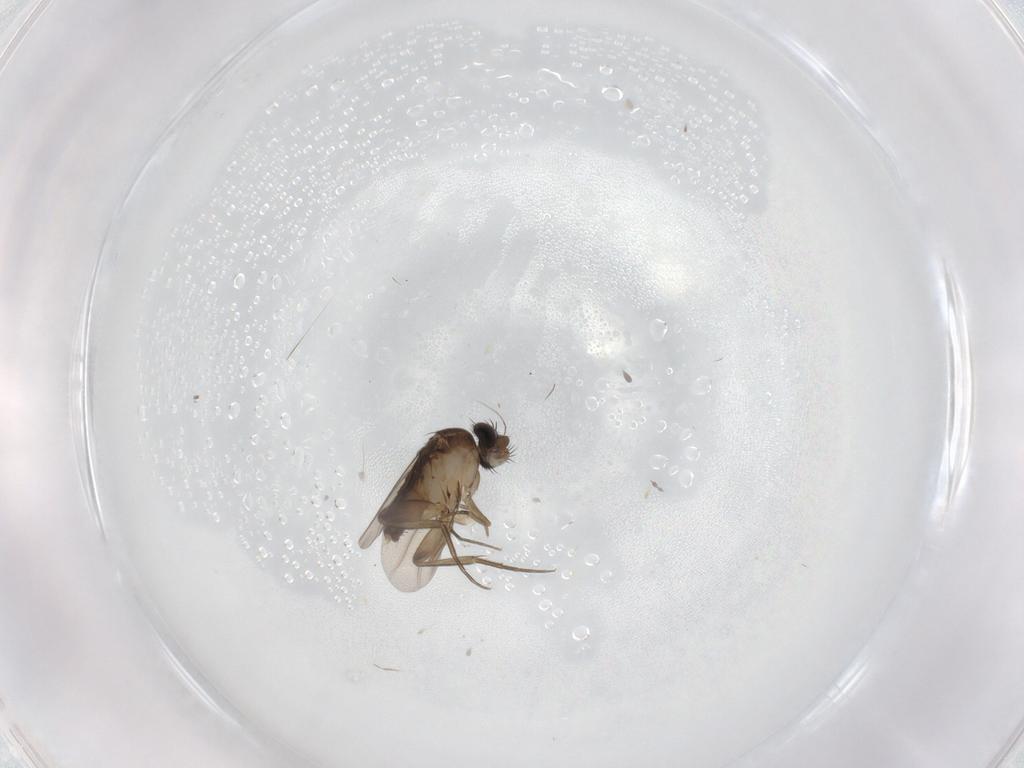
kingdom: Animalia
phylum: Arthropoda
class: Insecta
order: Diptera
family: Phoridae
